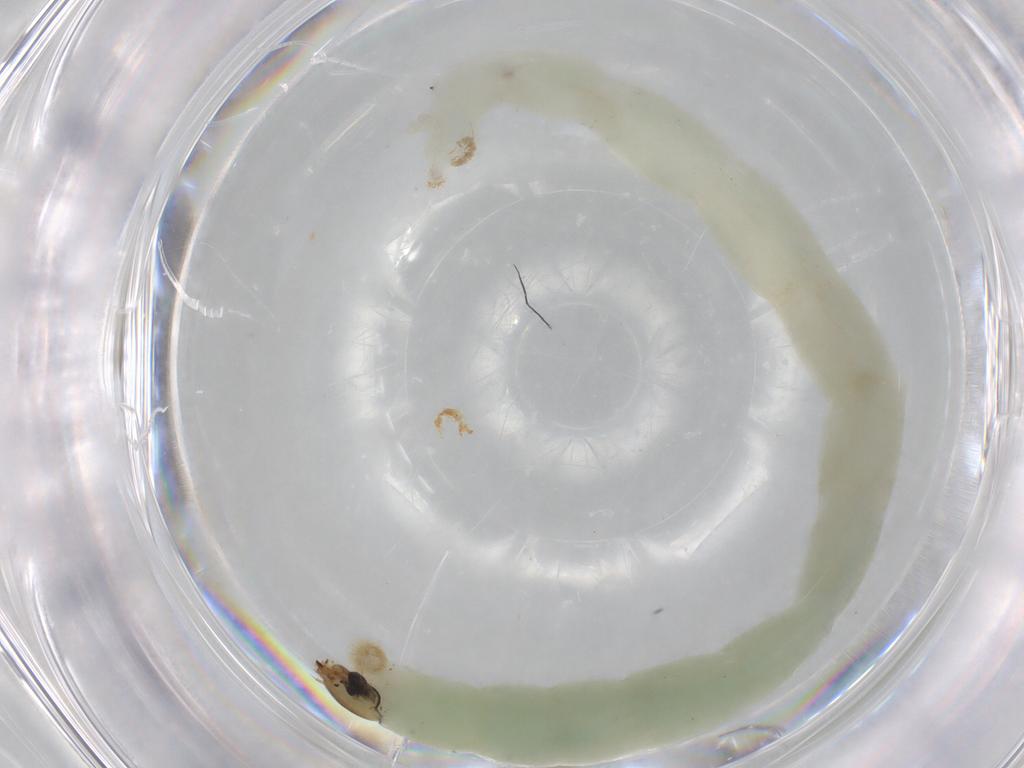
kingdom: Animalia
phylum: Arthropoda
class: Insecta
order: Diptera
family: Chironomidae
